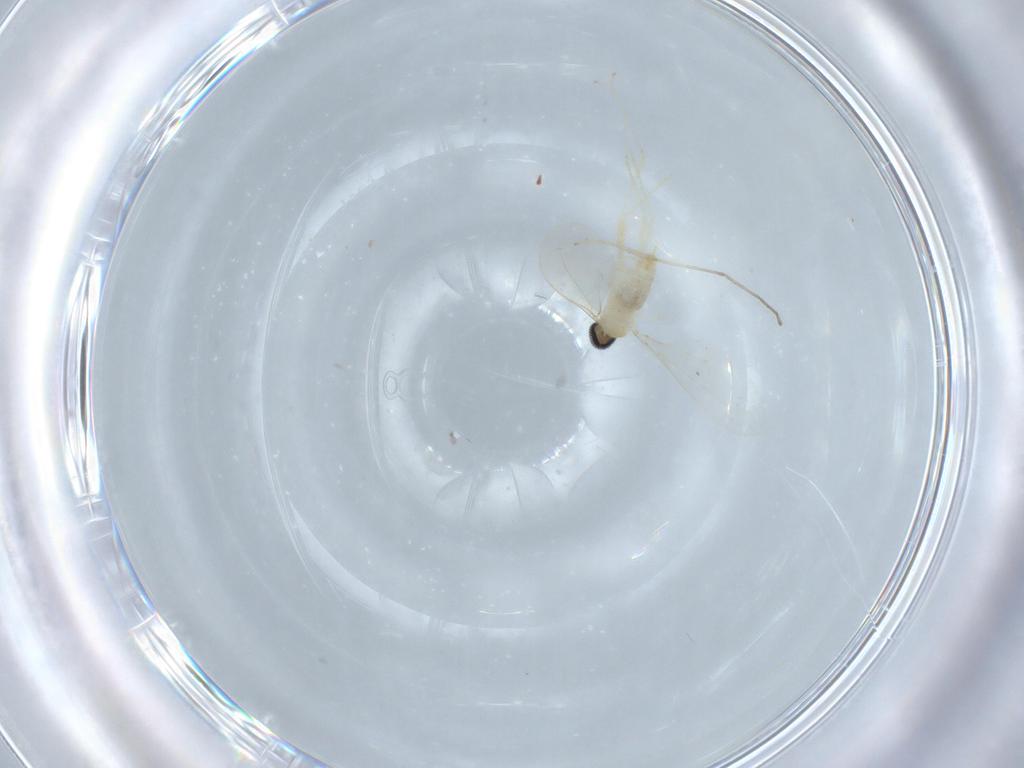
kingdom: Animalia
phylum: Arthropoda
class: Insecta
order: Diptera
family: Cecidomyiidae
